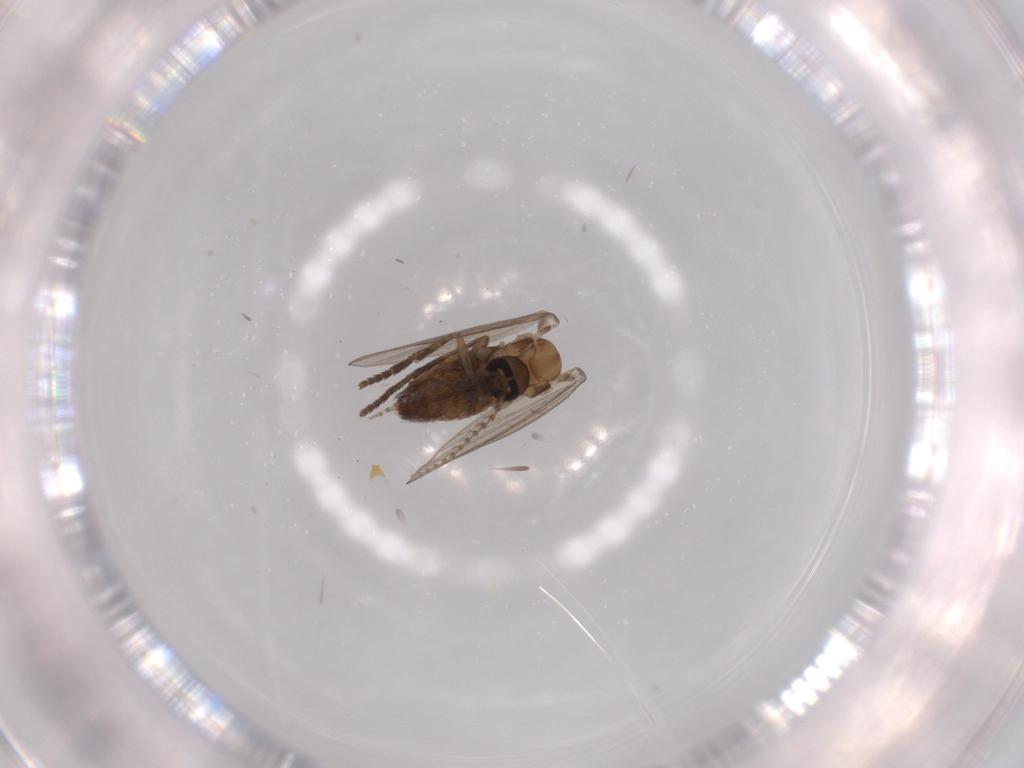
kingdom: Animalia
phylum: Arthropoda
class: Insecta
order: Diptera
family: Psychodidae
